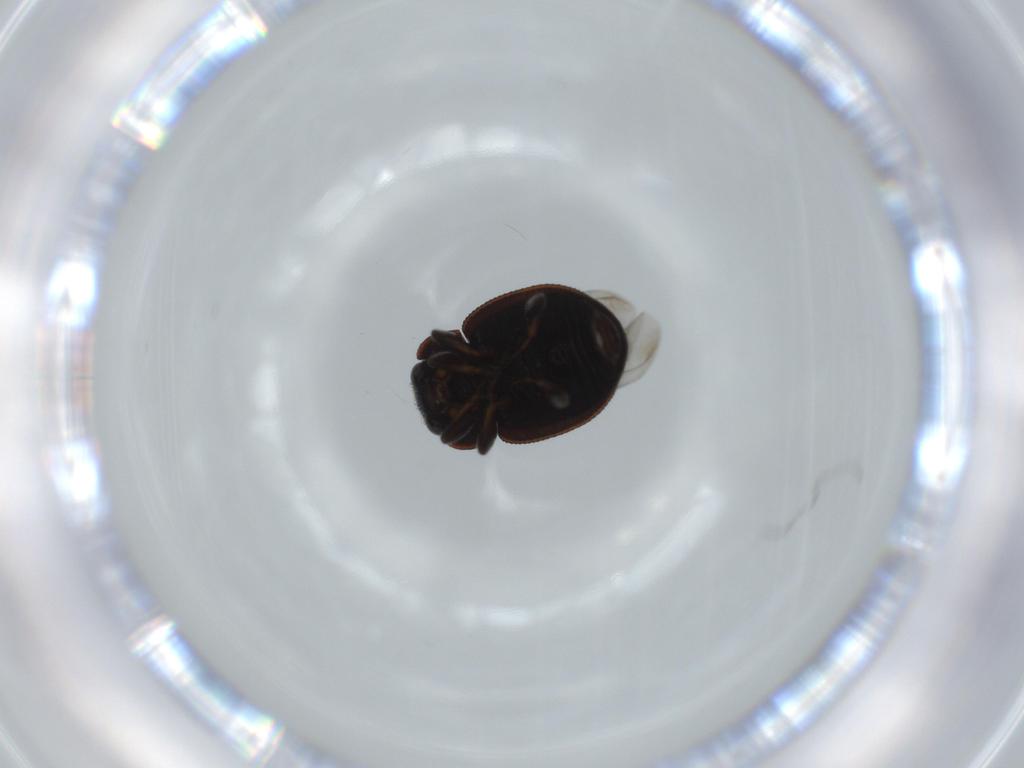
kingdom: Animalia
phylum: Arthropoda
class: Insecta
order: Coleoptera
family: Coccinellidae
